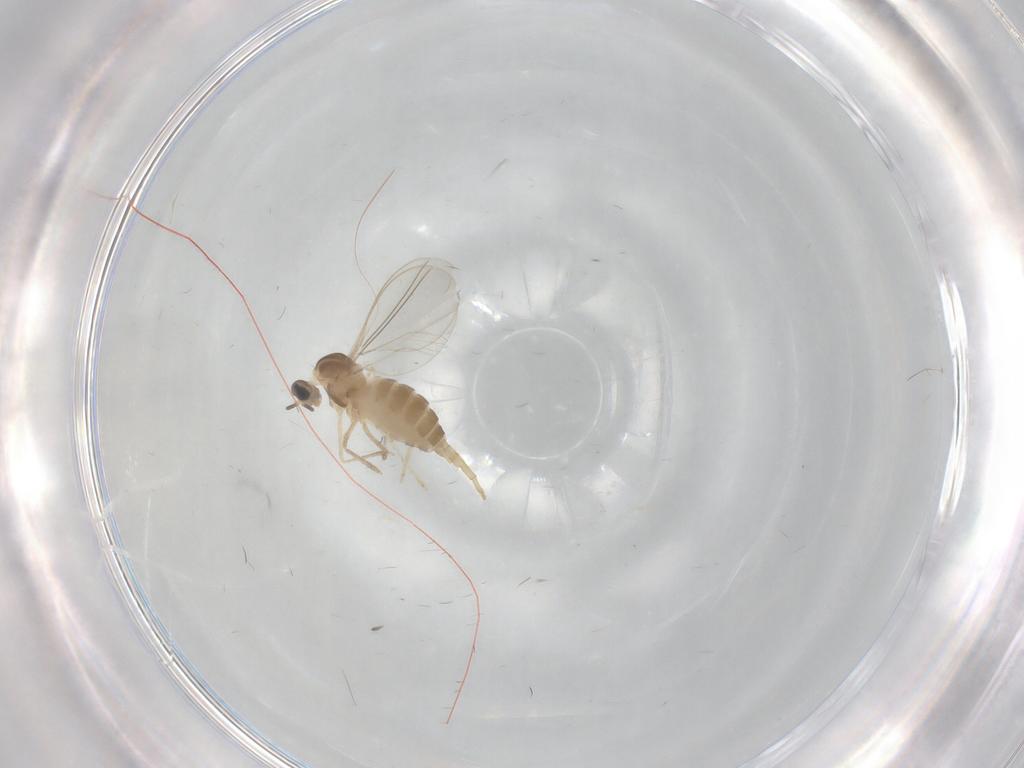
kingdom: Animalia
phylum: Arthropoda
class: Insecta
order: Diptera
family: Cecidomyiidae
